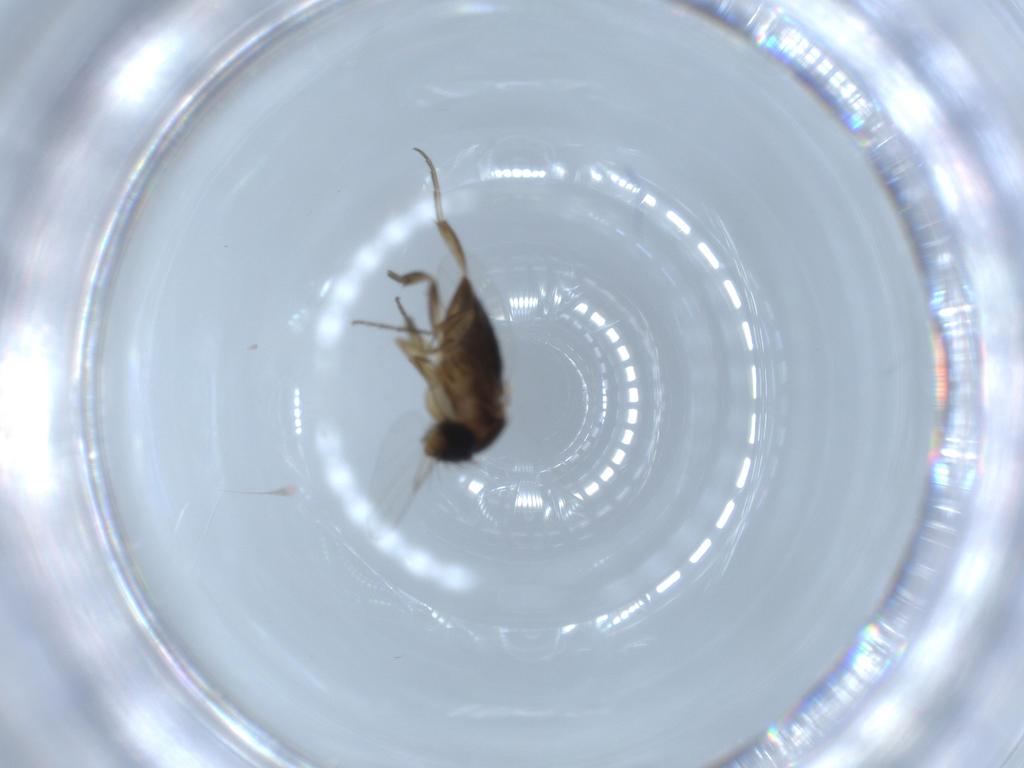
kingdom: Animalia
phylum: Arthropoda
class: Insecta
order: Diptera
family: Phoridae
